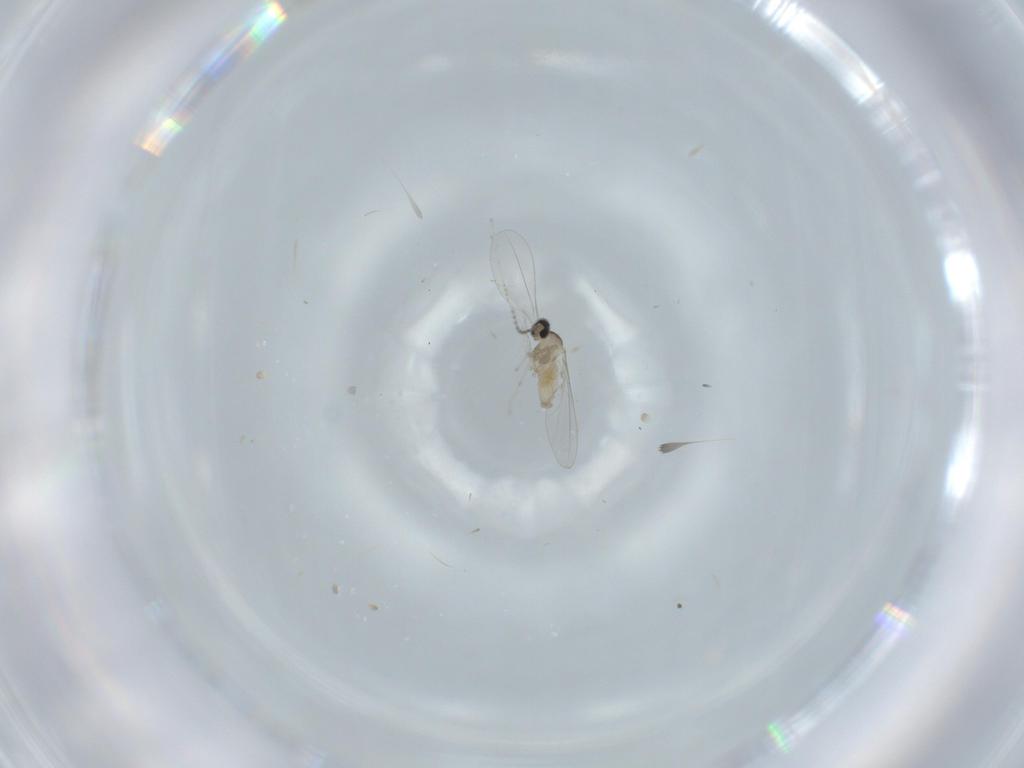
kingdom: Animalia
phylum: Arthropoda
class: Insecta
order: Diptera
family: Cecidomyiidae
